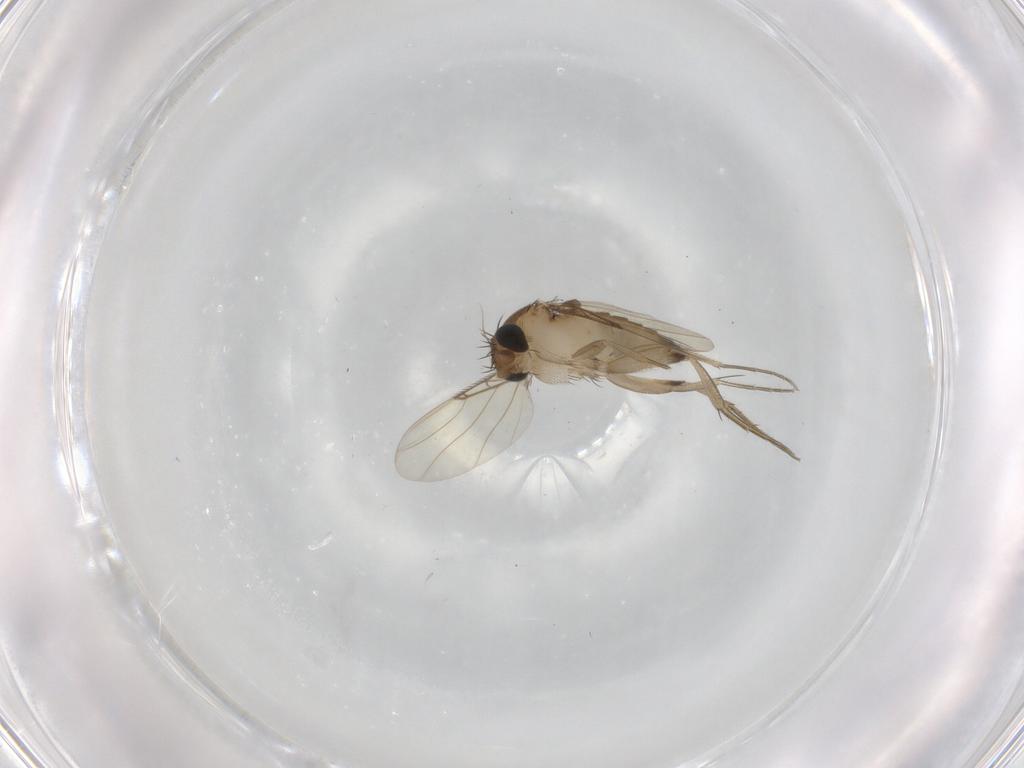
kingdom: Animalia
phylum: Arthropoda
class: Insecta
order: Diptera
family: Phoridae
